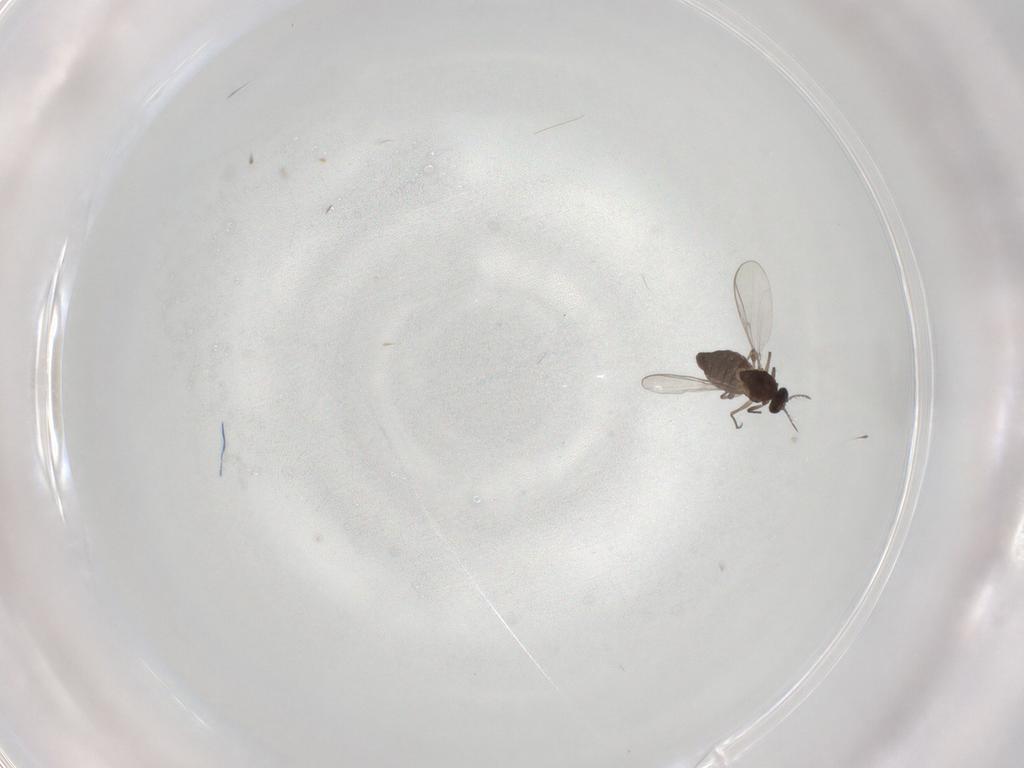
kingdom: Animalia
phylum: Arthropoda
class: Insecta
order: Diptera
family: Chironomidae
